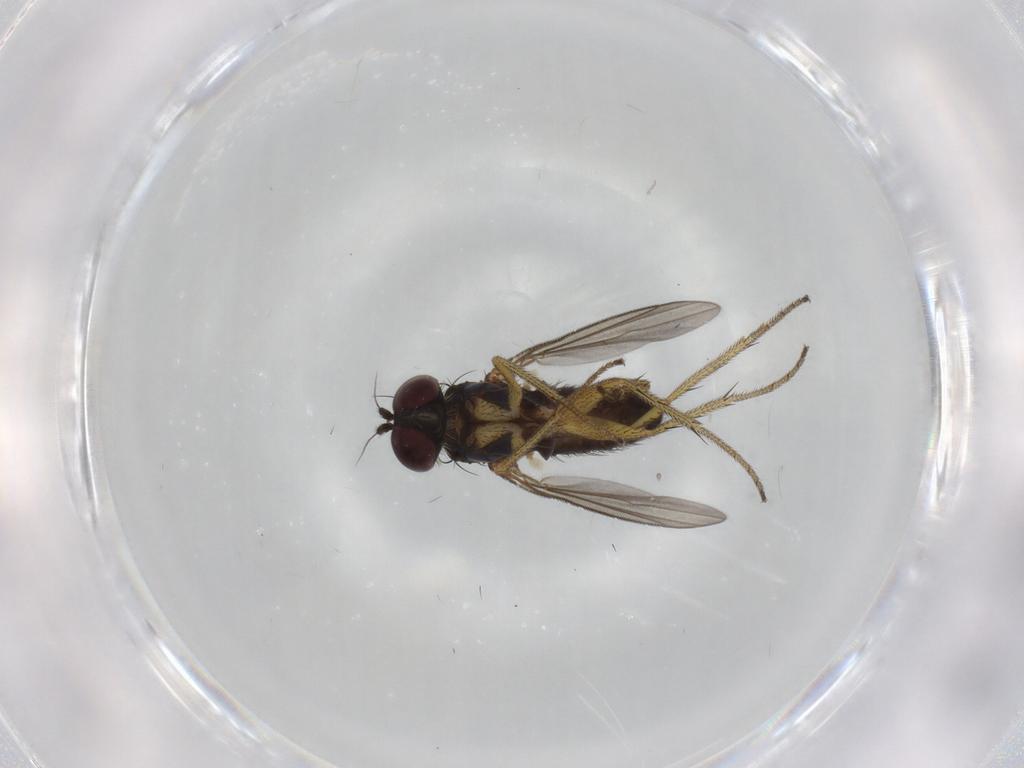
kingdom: Animalia
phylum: Arthropoda
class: Insecta
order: Diptera
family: Dolichopodidae
